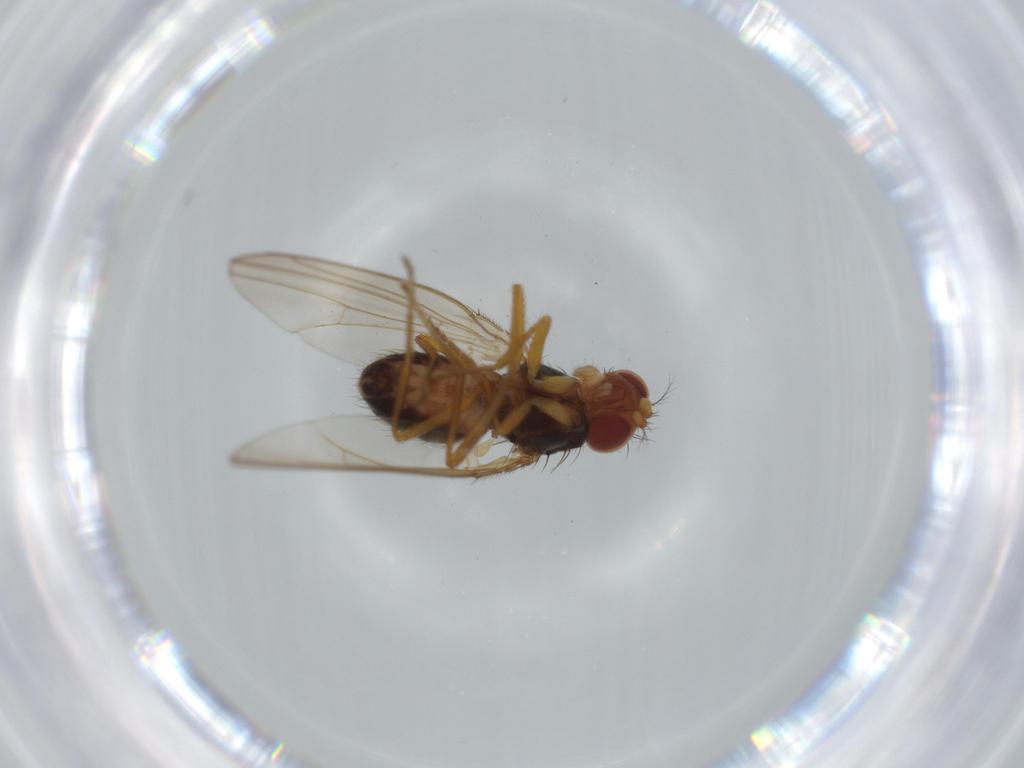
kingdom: Animalia
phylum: Arthropoda
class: Insecta
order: Diptera
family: Drosophilidae
